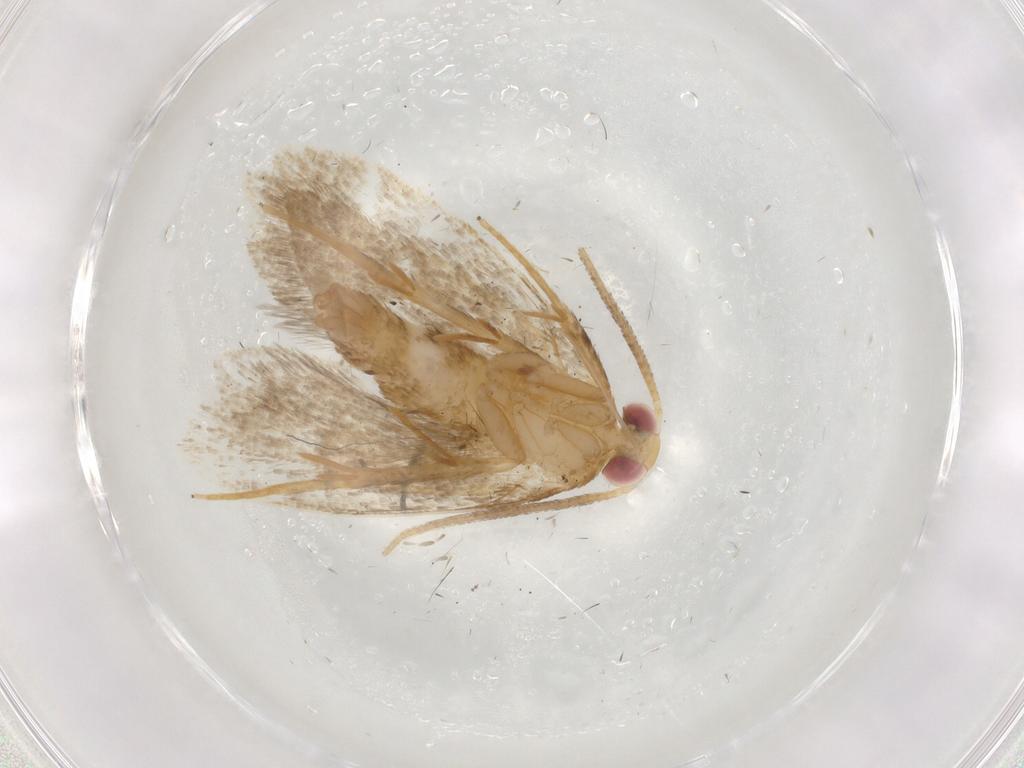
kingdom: Animalia
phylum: Arthropoda
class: Insecta
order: Lepidoptera
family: Oecophoridae
